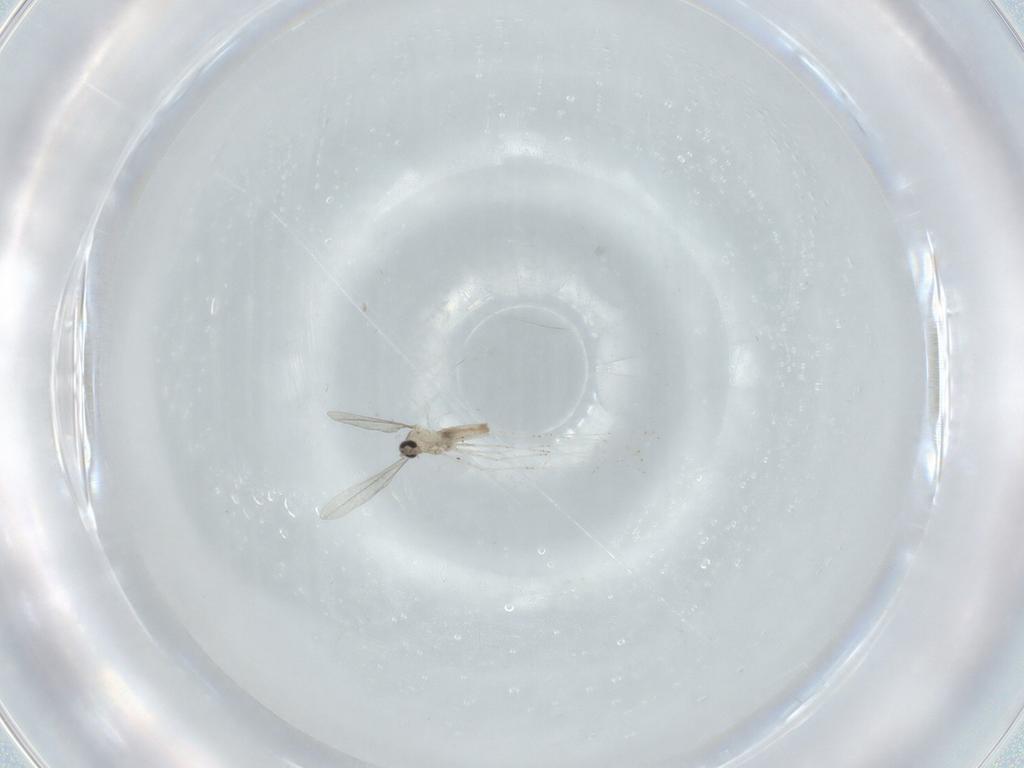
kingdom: Animalia
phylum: Arthropoda
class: Insecta
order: Diptera
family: Cecidomyiidae
